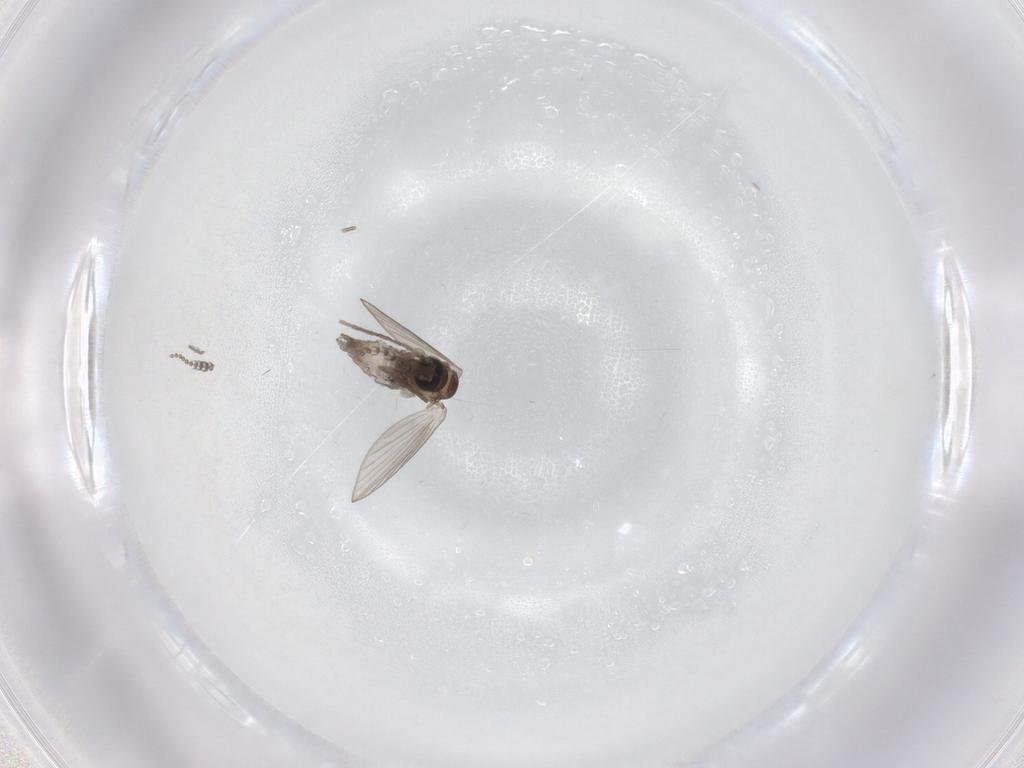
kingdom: Animalia
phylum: Arthropoda
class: Insecta
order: Diptera
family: Psychodidae
